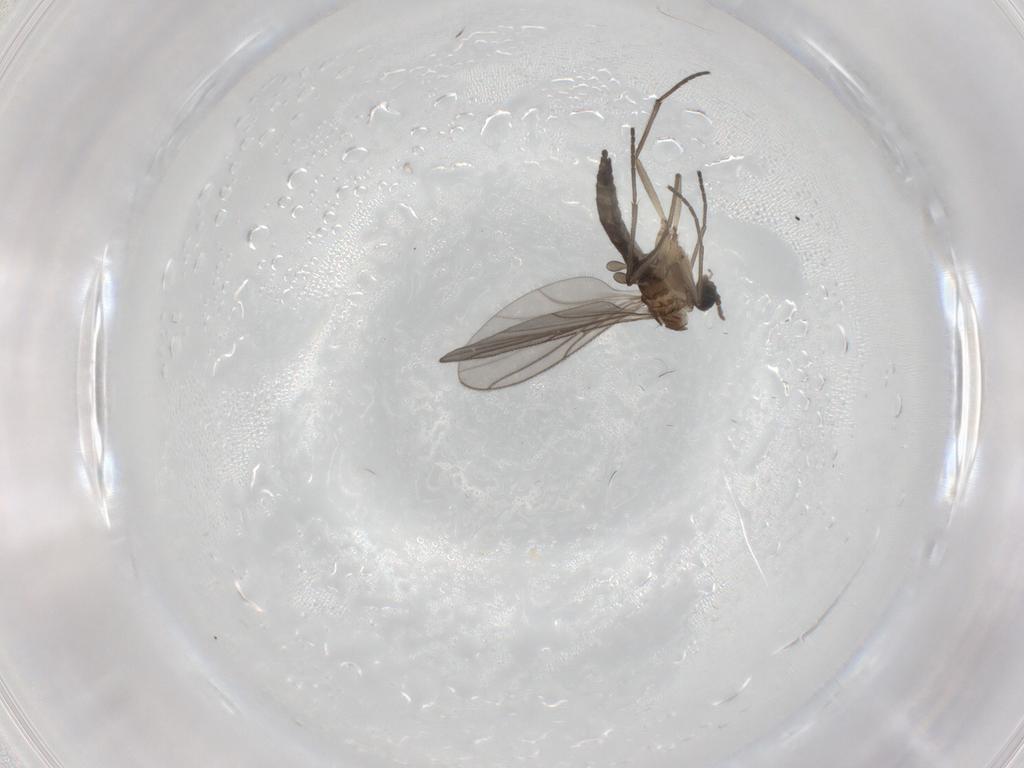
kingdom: Animalia
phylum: Arthropoda
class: Insecta
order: Diptera
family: Sciaridae
